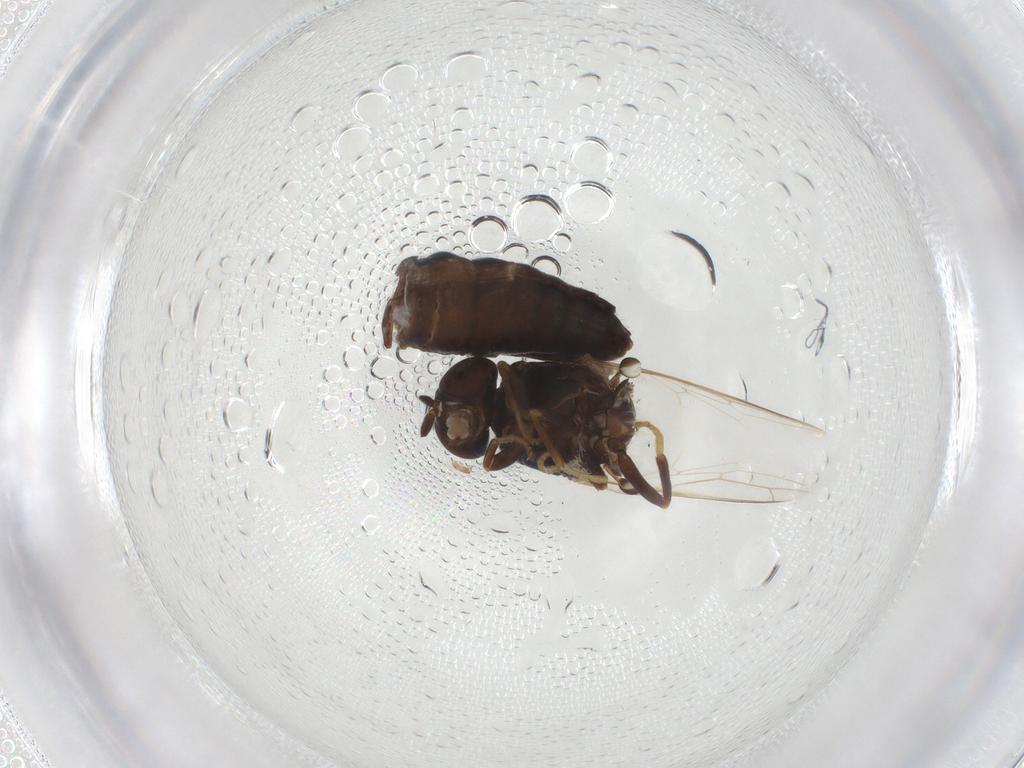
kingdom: Animalia
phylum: Arthropoda
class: Insecta
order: Diptera
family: Scenopinidae
